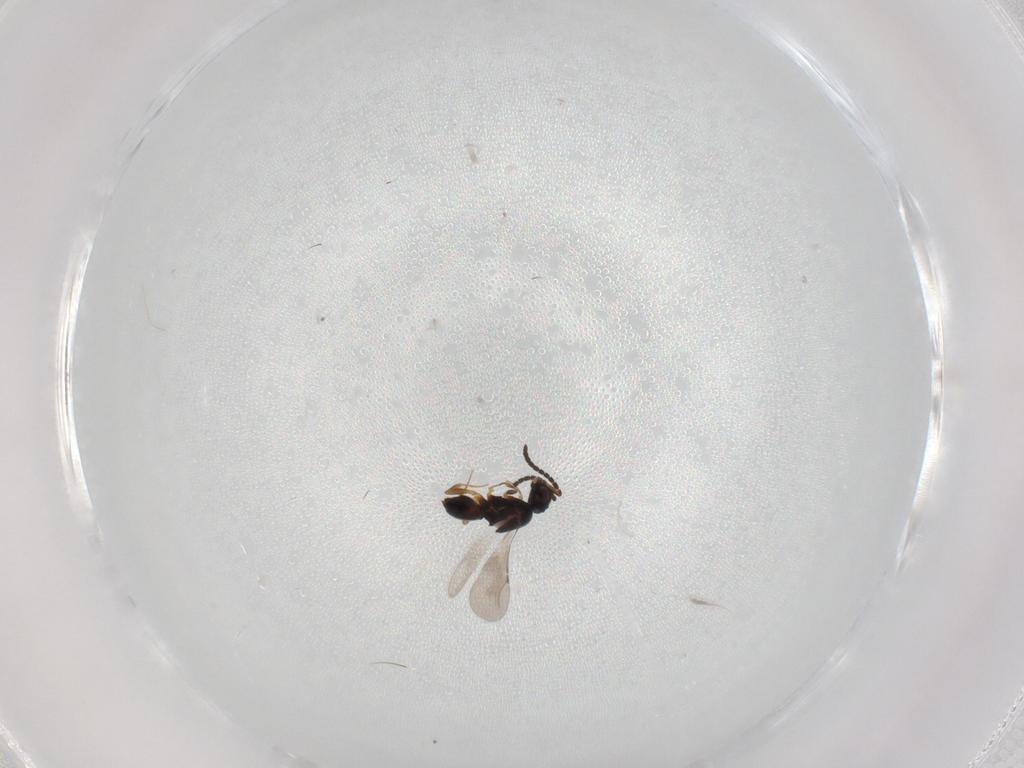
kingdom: Animalia
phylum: Arthropoda
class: Insecta
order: Hymenoptera
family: Ceraphronidae
